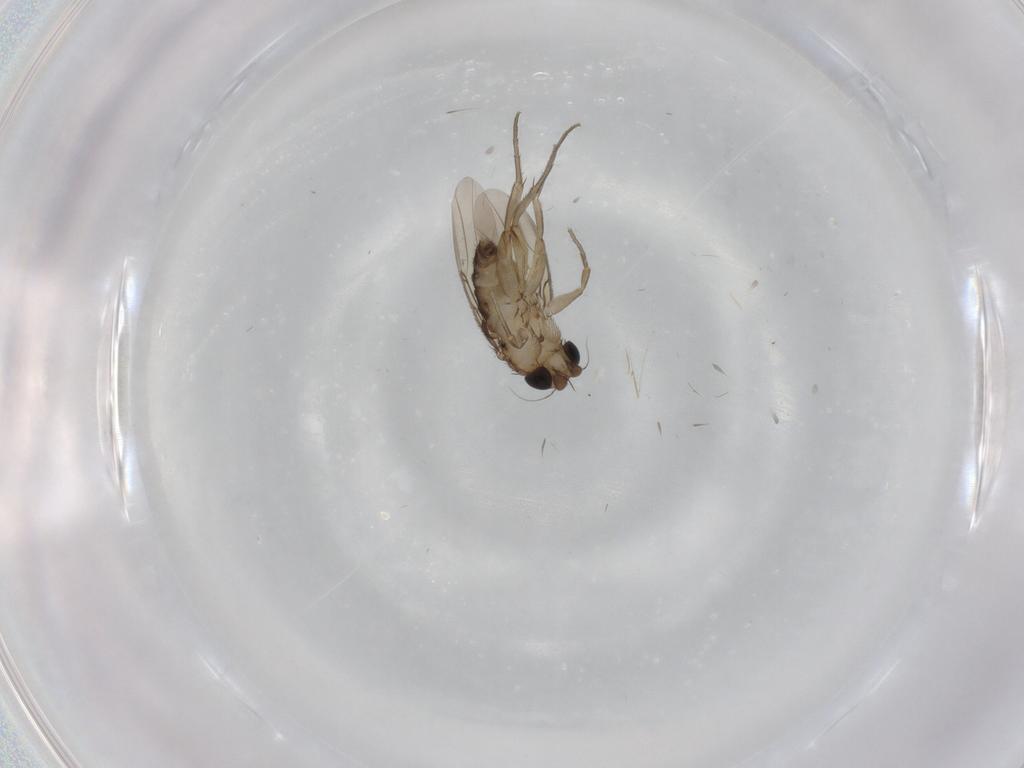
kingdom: Animalia
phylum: Arthropoda
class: Insecta
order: Diptera
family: Phoridae
